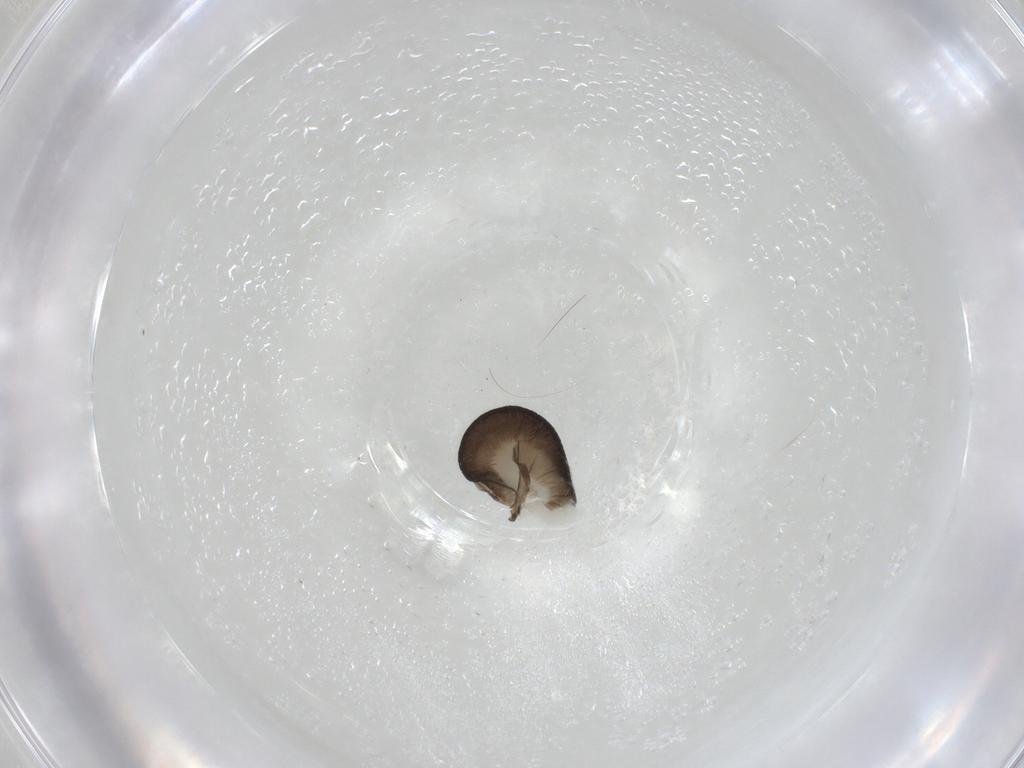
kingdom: Animalia
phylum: Arthropoda
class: Insecta
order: Hymenoptera
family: Dryinidae
